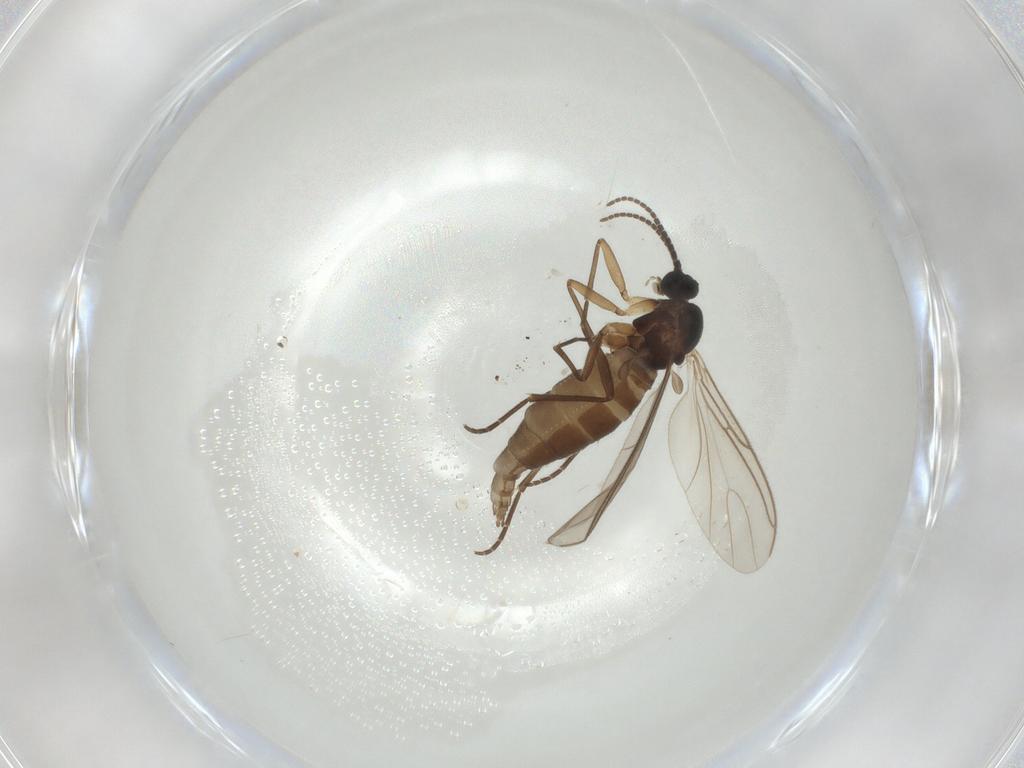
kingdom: Animalia
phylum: Arthropoda
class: Insecta
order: Diptera
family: Sciaridae
